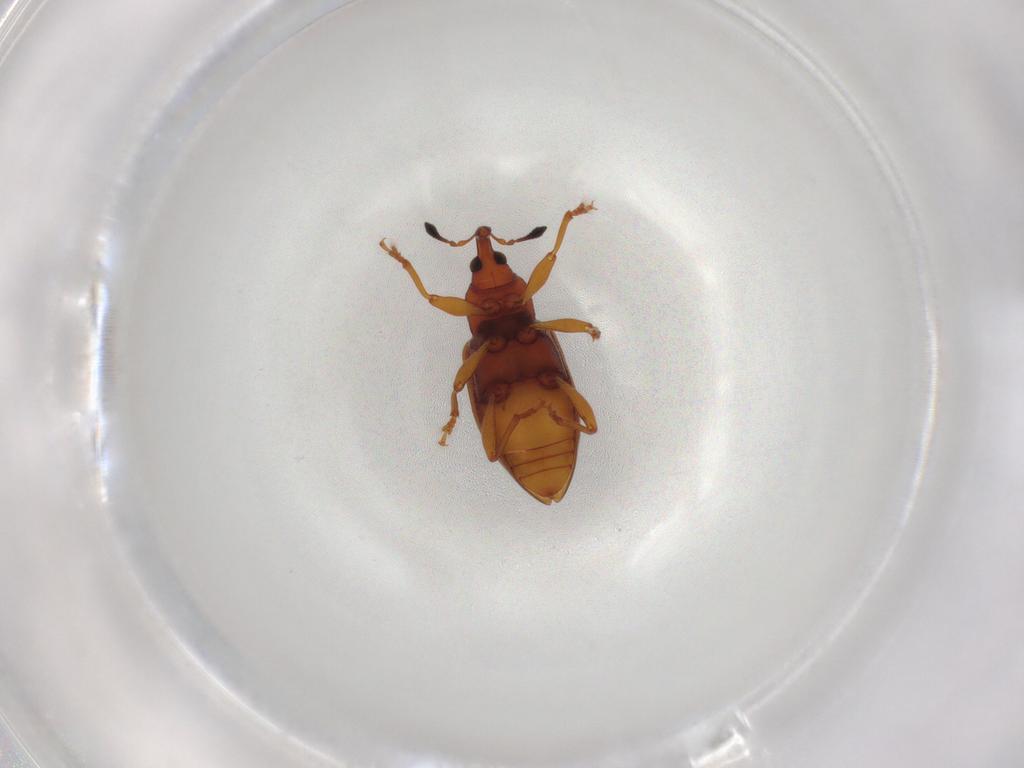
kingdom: Animalia
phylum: Arthropoda
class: Insecta
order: Coleoptera
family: Curculionidae
